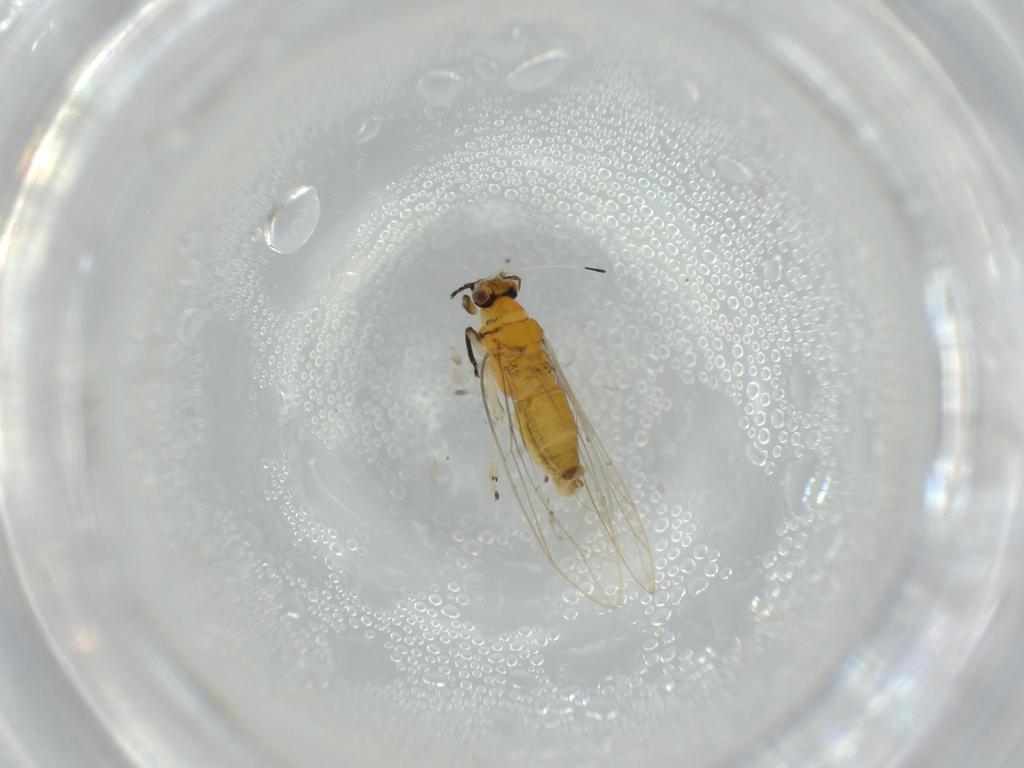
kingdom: Animalia
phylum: Arthropoda
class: Insecta
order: Hemiptera
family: Triozidae
